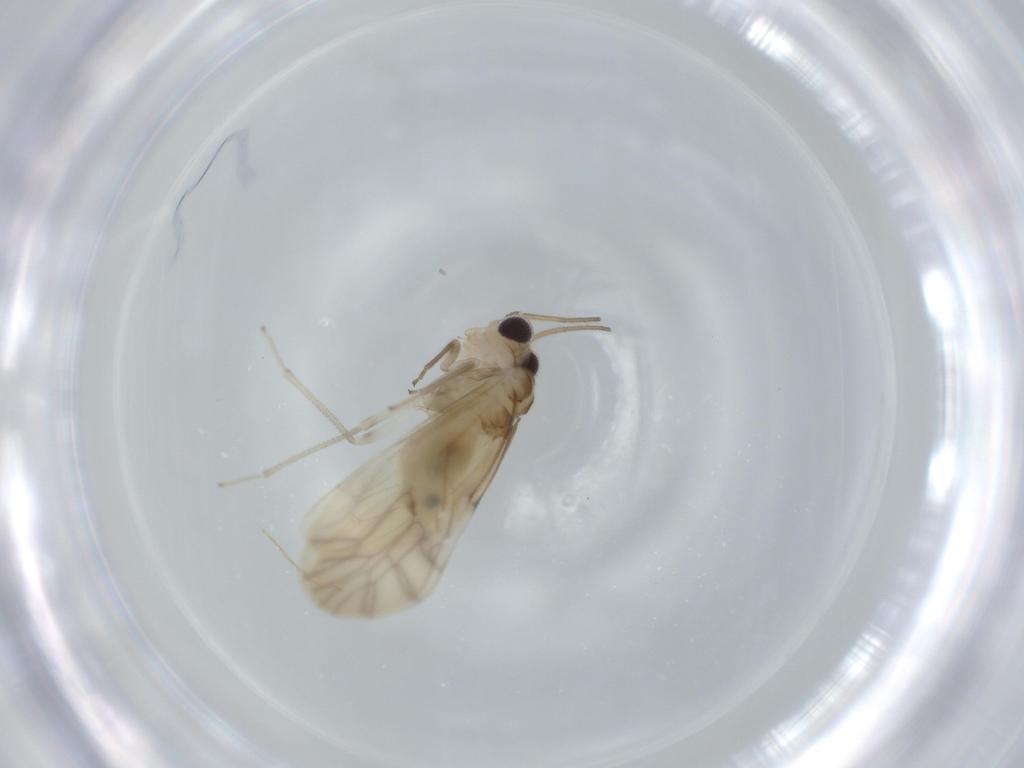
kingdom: Animalia
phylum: Arthropoda
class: Insecta
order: Psocodea
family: Caeciliusidae
